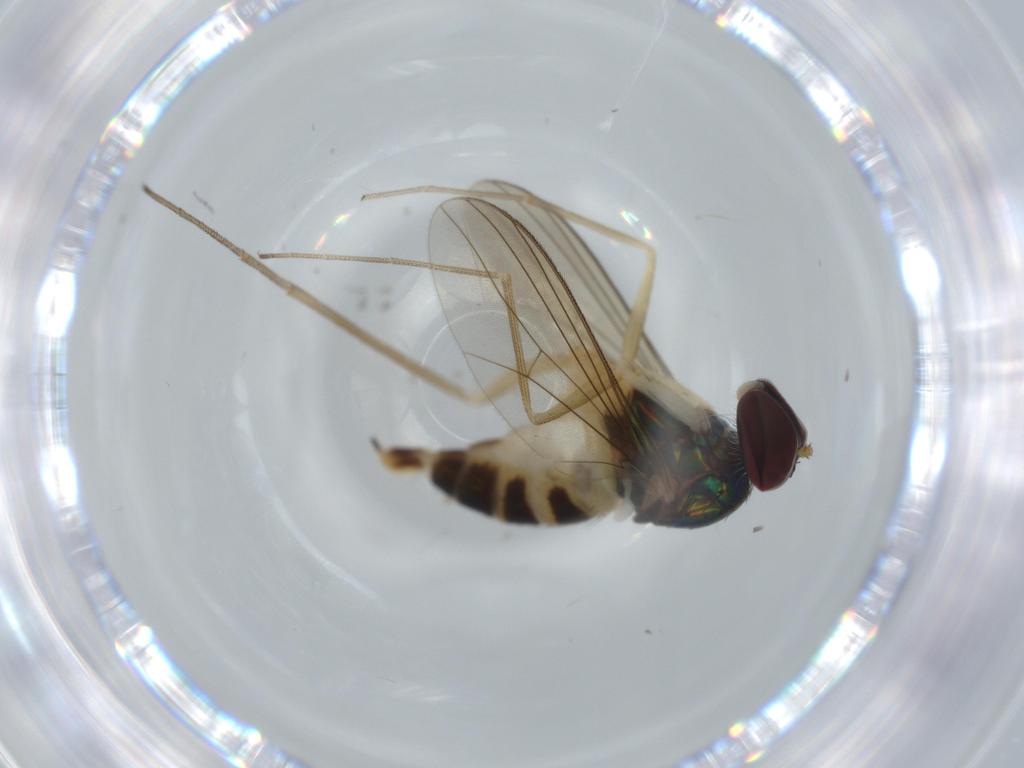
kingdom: Animalia
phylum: Arthropoda
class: Insecta
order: Diptera
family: Dolichopodidae
